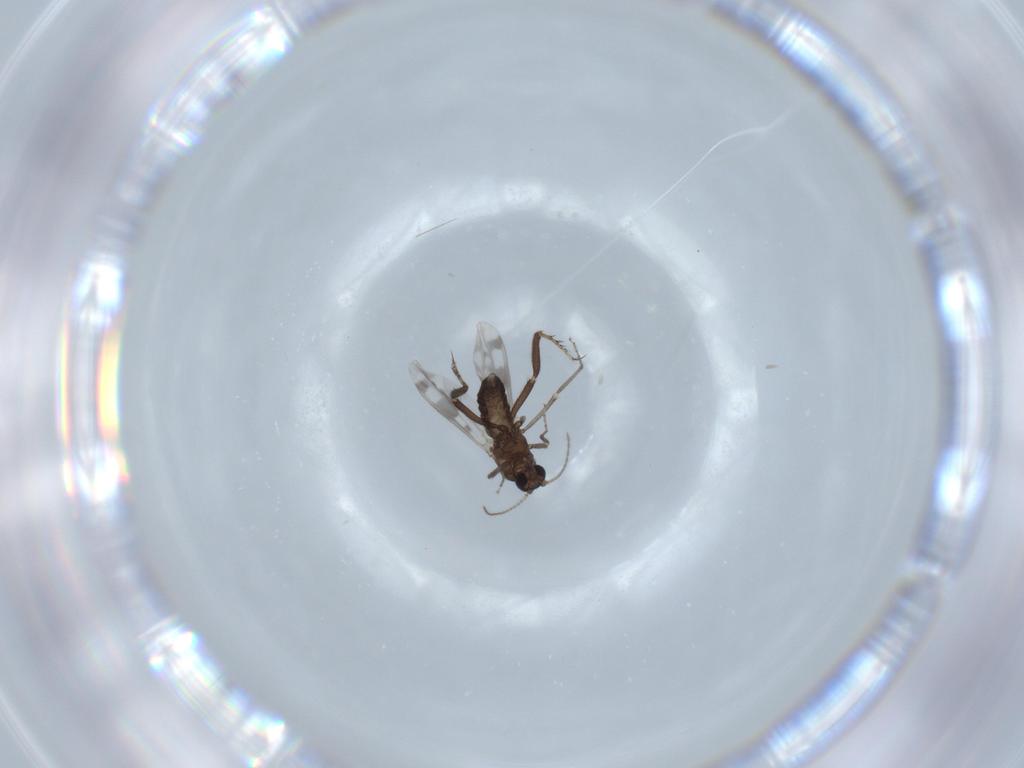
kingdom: Animalia
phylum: Arthropoda
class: Insecta
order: Diptera
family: Ceratopogonidae
